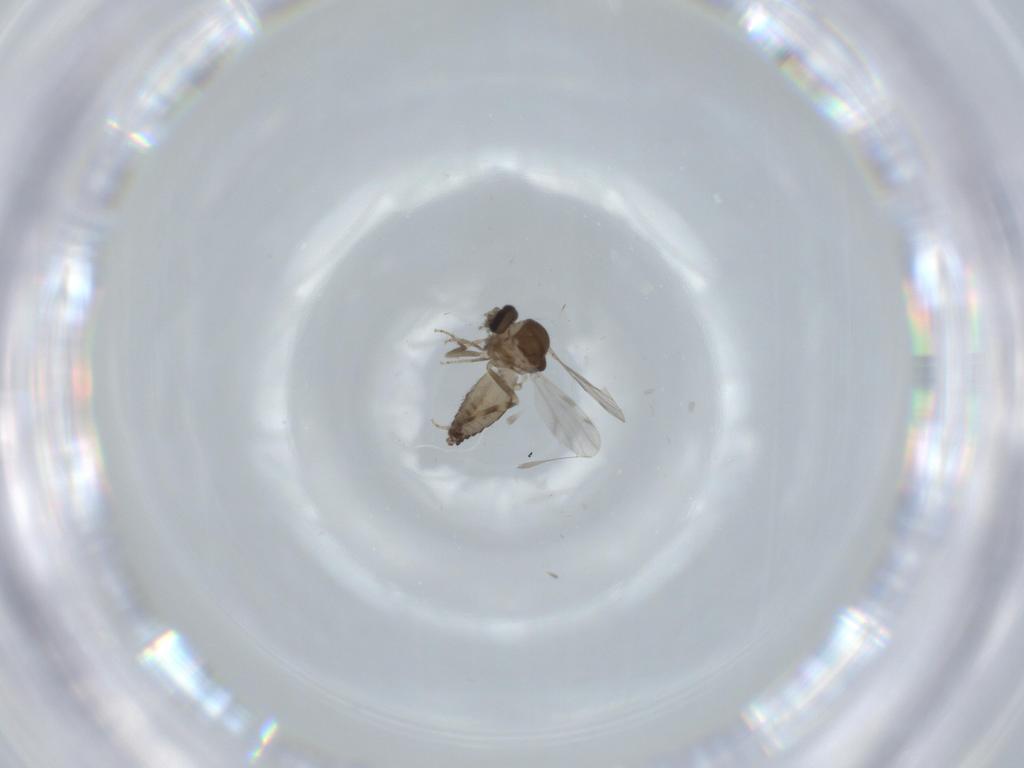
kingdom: Animalia
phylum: Arthropoda
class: Insecta
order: Diptera
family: Ceratopogonidae
